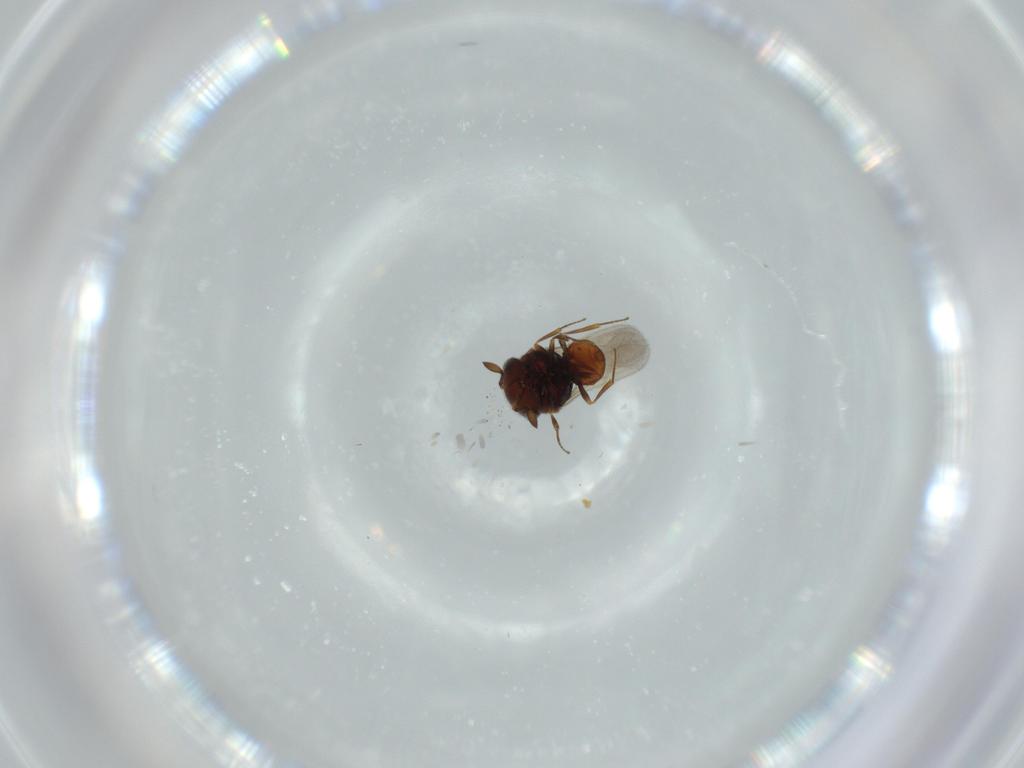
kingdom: Animalia
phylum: Arthropoda
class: Insecta
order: Hymenoptera
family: Scelionidae
